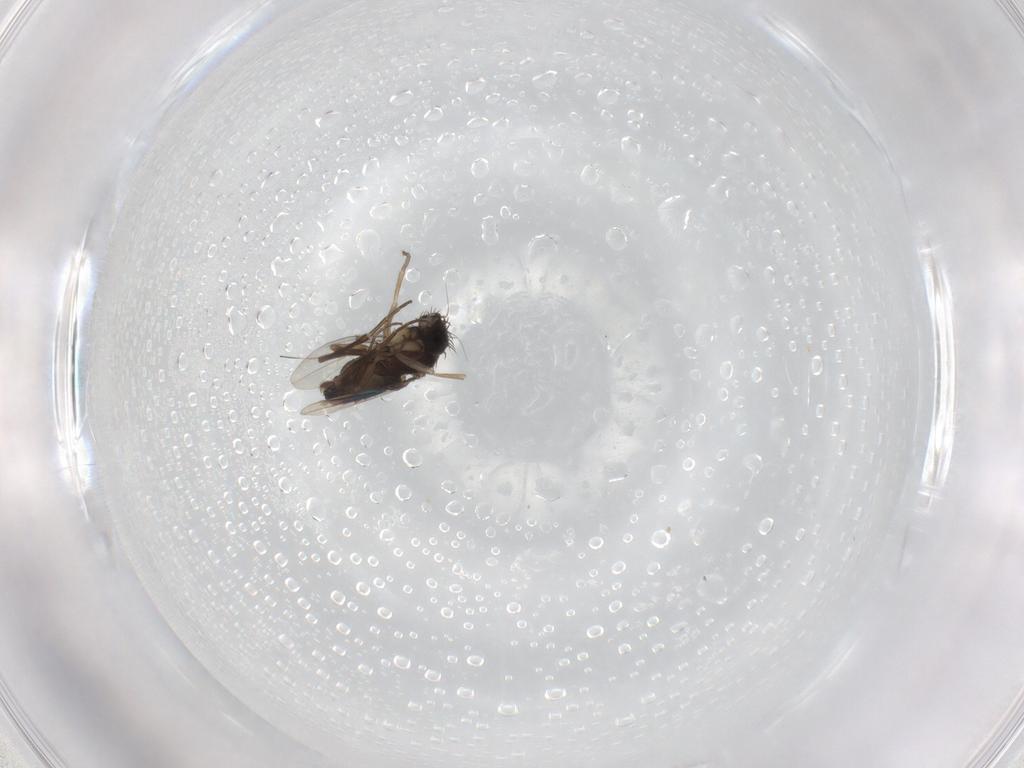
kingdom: Animalia
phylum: Arthropoda
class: Insecta
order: Diptera
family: Phoridae
